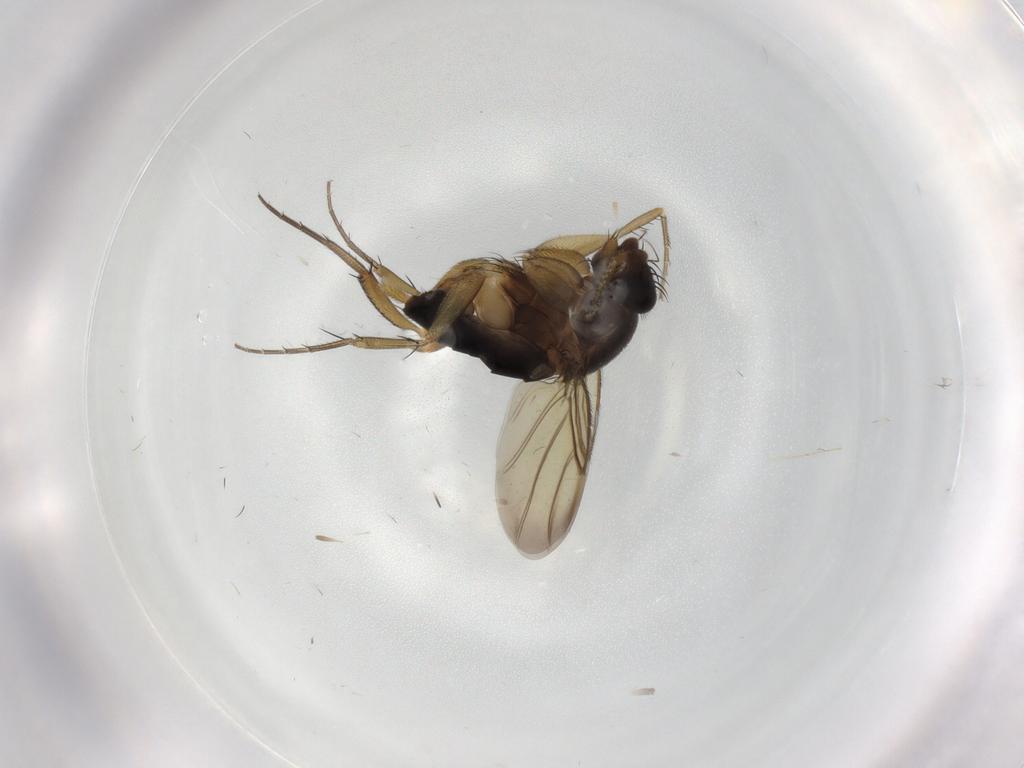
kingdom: Animalia
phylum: Arthropoda
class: Insecta
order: Diptera
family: Phoridae
